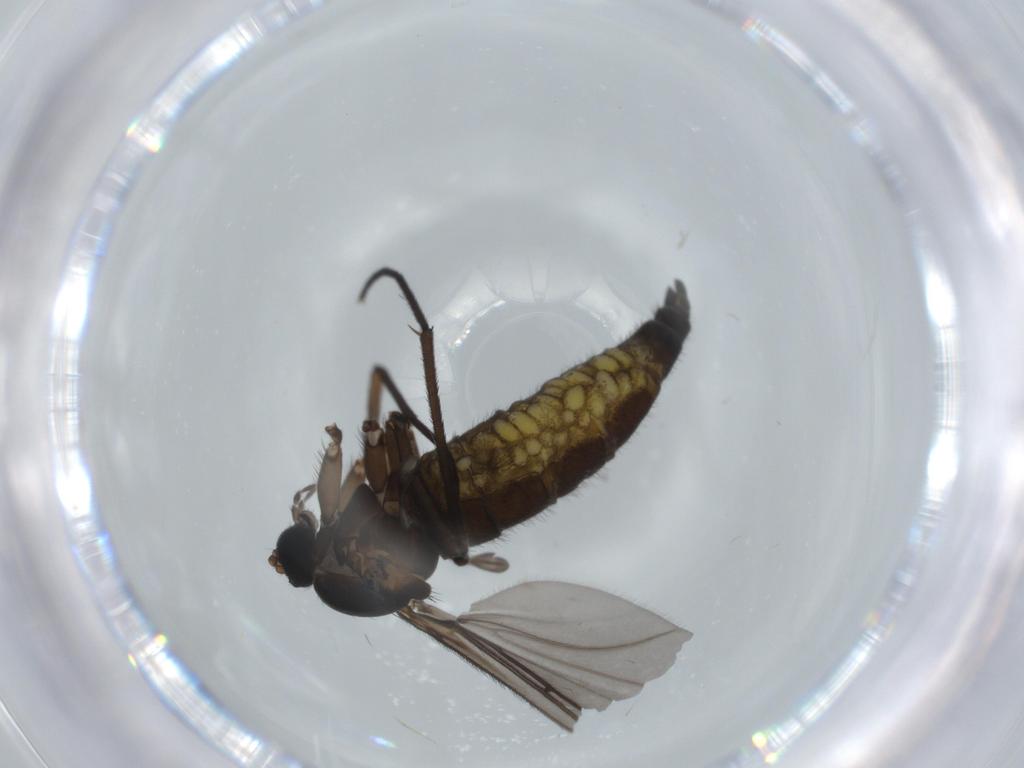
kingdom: Animalia
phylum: Arthropoda
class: Insecta
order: Diptera
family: Sciaridae
